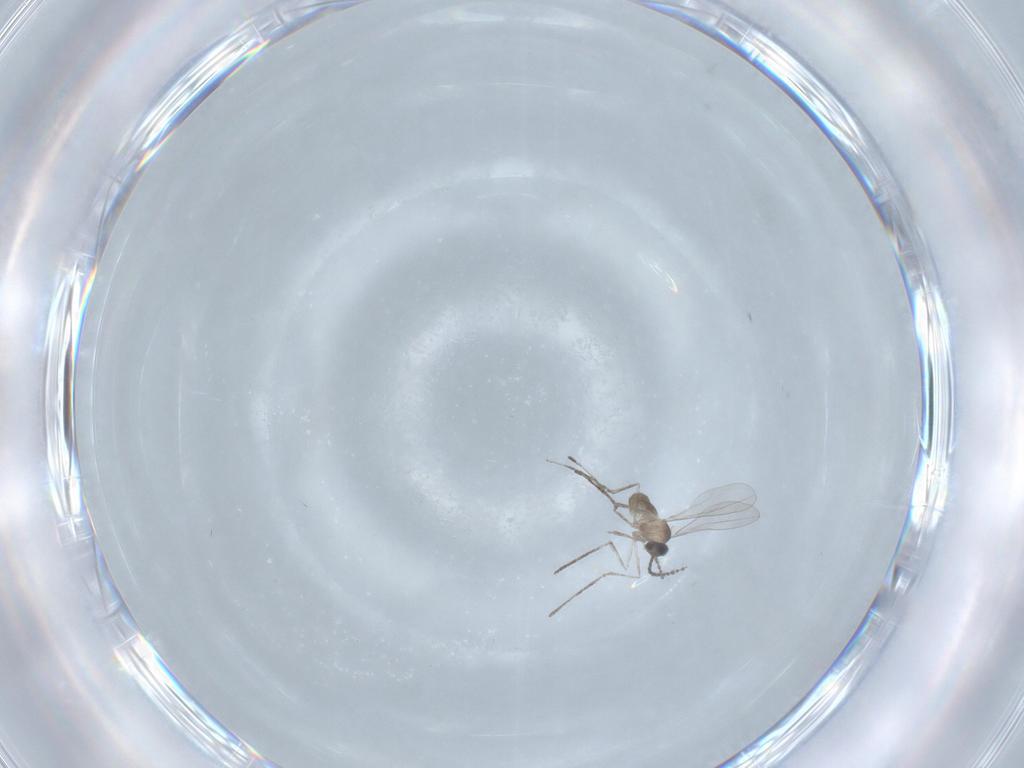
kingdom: Animalia
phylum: Arthropoda
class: Insecta
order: Diptera
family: Cecidomyiidae
